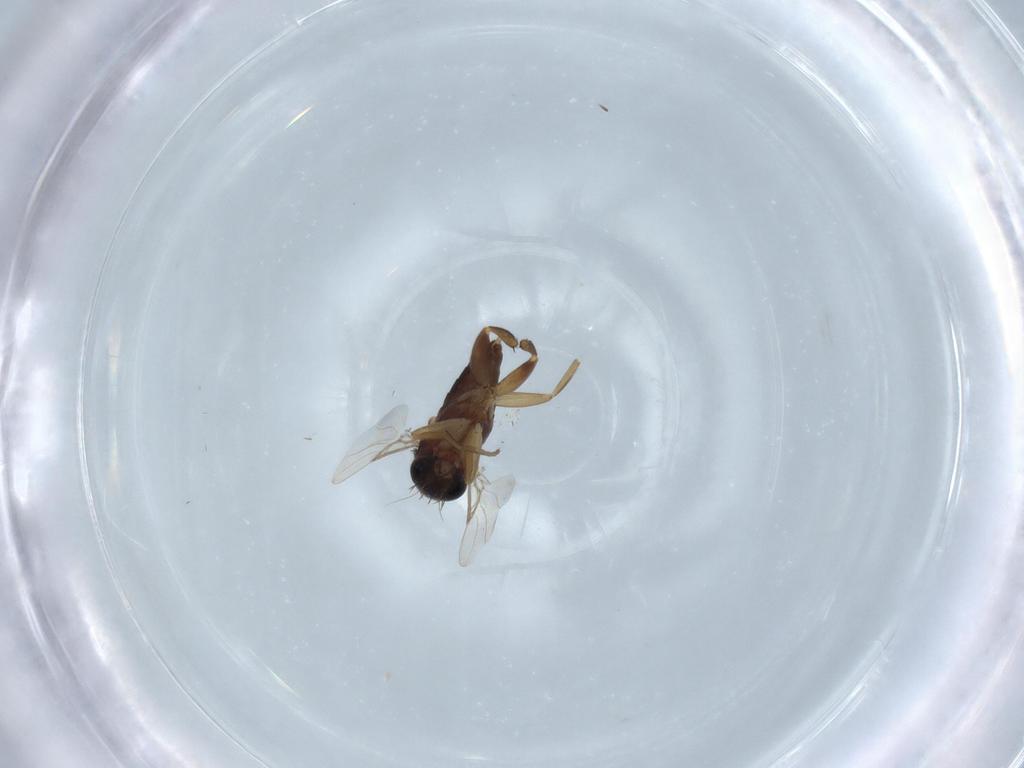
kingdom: Animalia
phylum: Arthropoda
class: Insecta
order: Diptera
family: Phoridae
